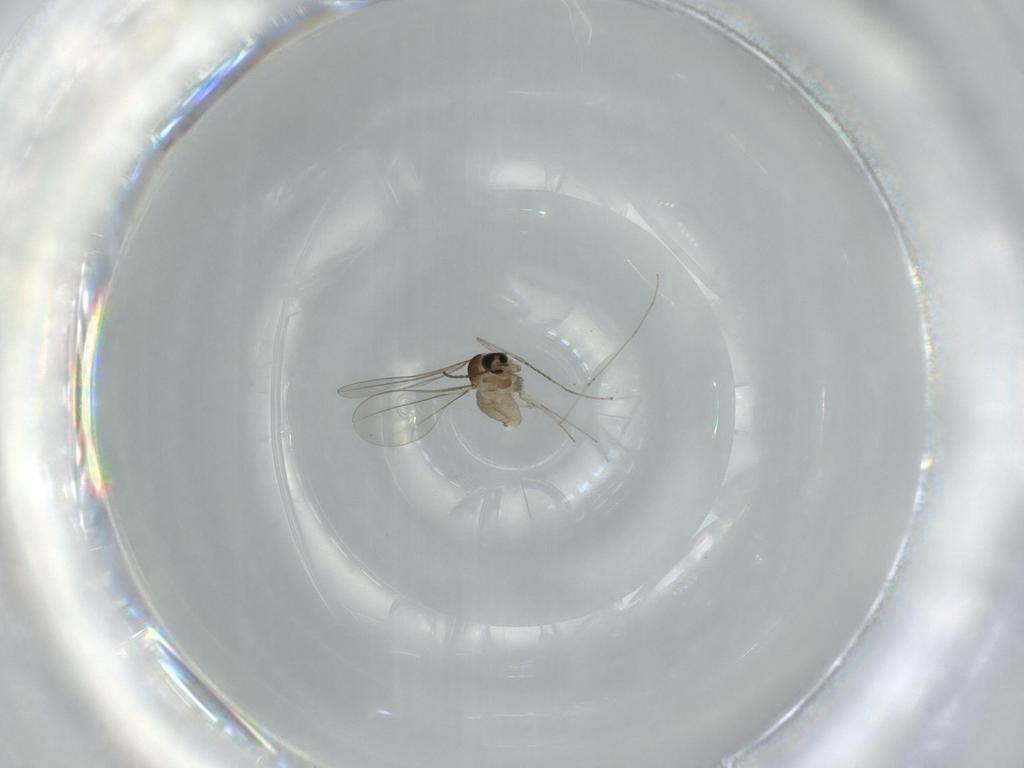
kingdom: Animalia
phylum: Arthropoda
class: Insecta
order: Diptera
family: Cecidomyiidae
